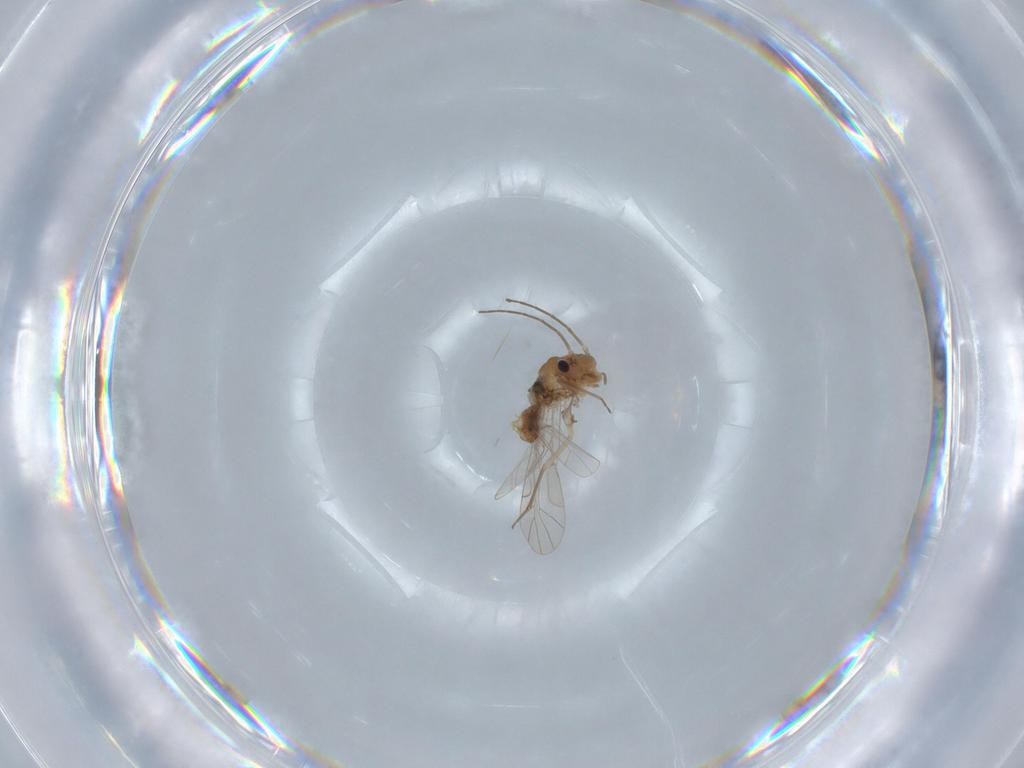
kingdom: Animalia
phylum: Arthropoda
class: Insecta
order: Psocodea
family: Lachesillidae
